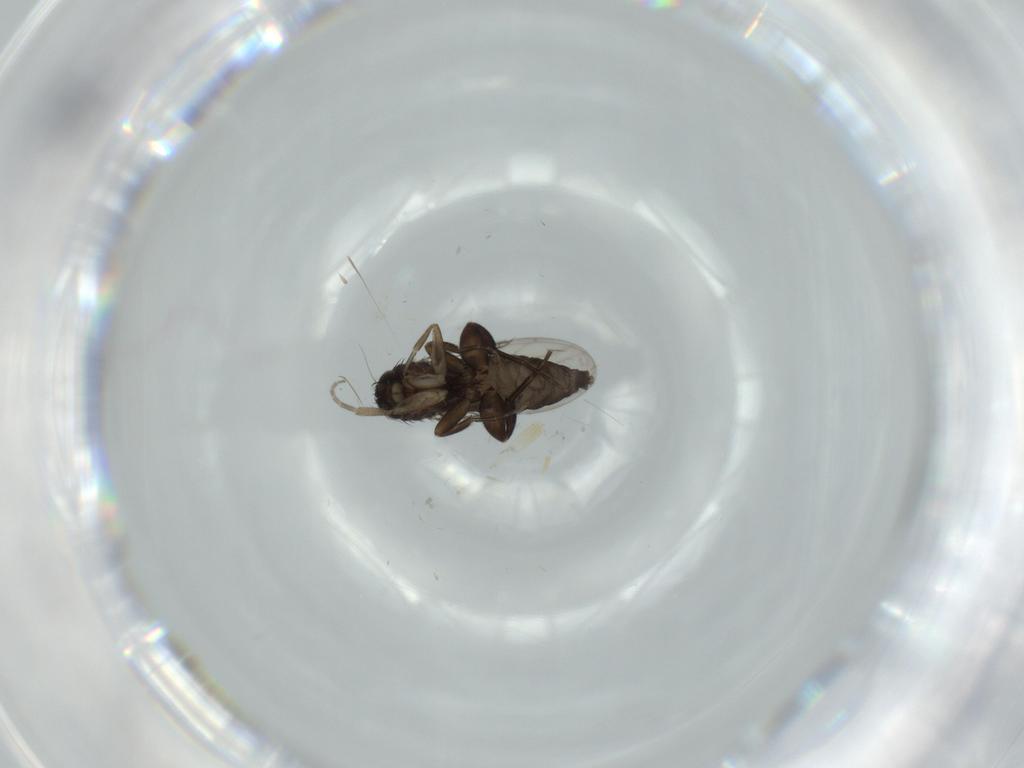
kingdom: Animalia
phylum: Arthropoda
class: Insecta
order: Diptera
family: Phoridae
